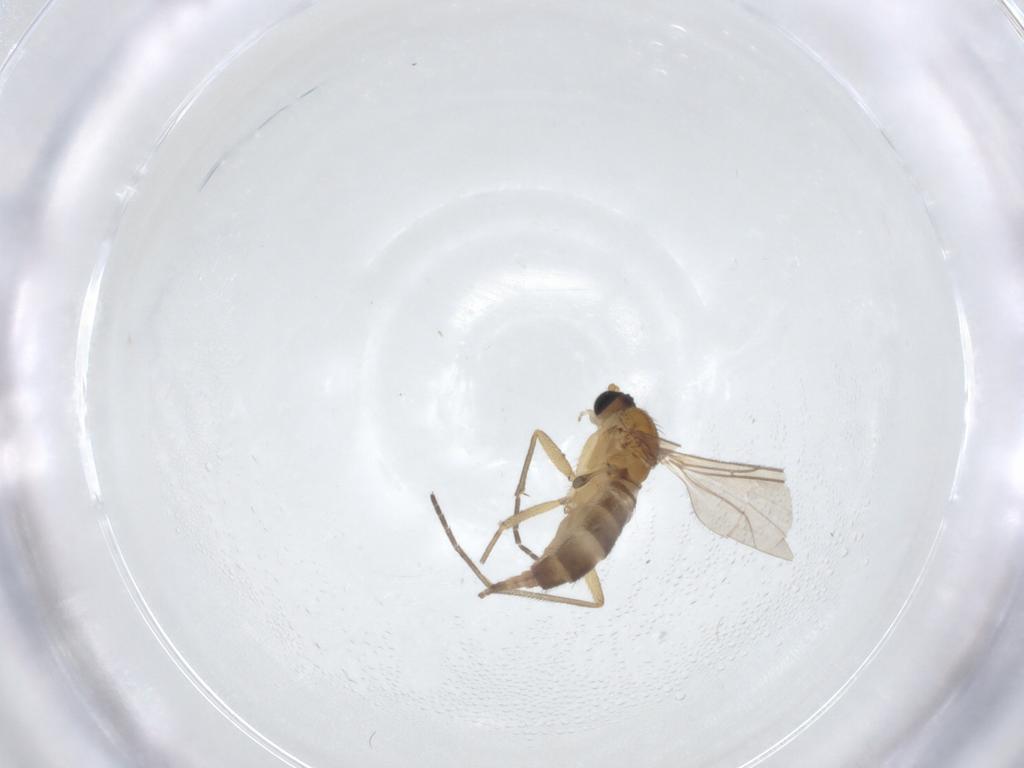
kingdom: Animalia
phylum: Arthropoda
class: Insecta
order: Diptera
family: Sciaridae
